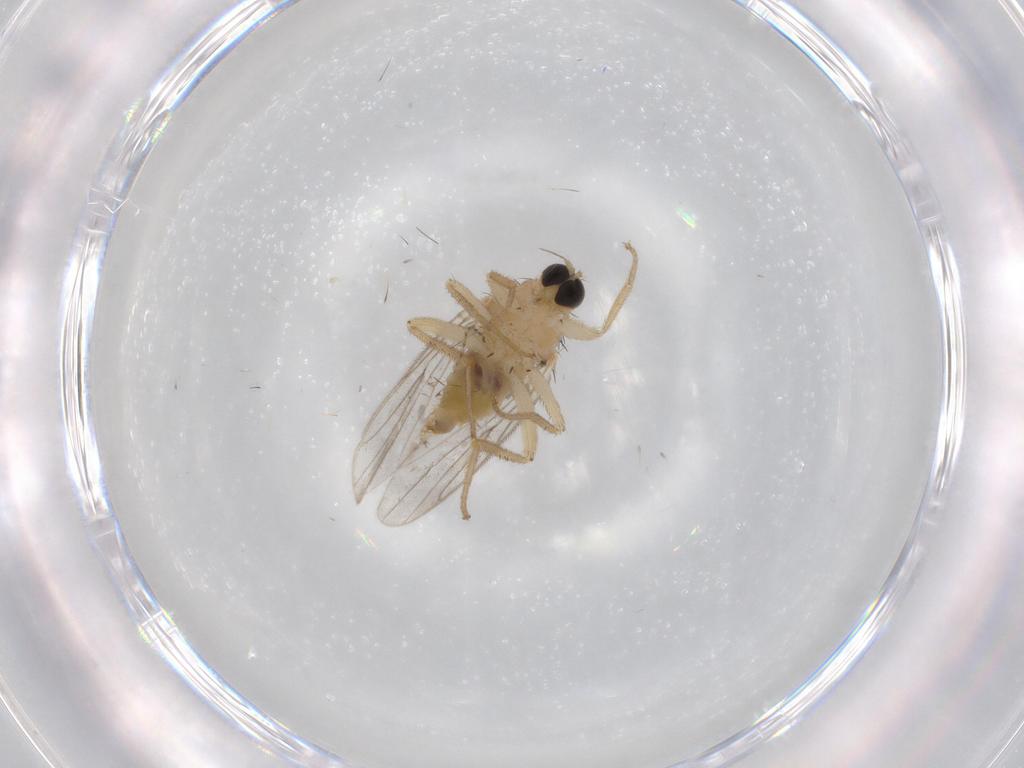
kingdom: Animalia
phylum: Arthropoda
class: Insecta
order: Diptera
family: Hybotidae
